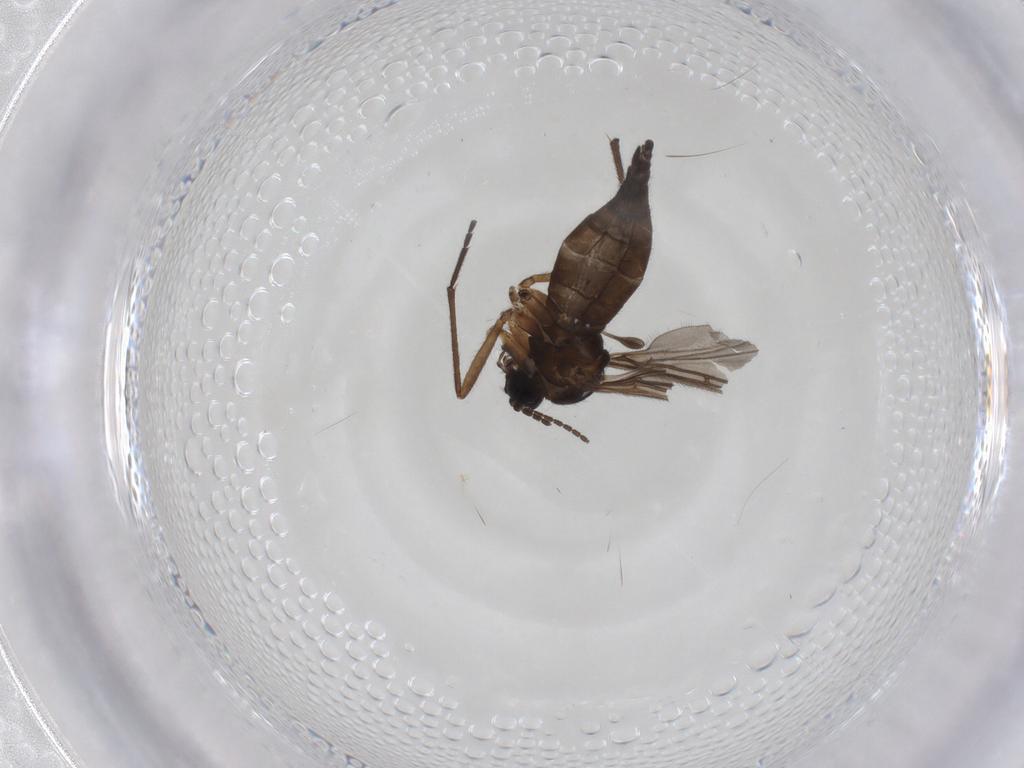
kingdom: Animalia
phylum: Arthropoda
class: Insecta
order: Diptera
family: Sciaridae
